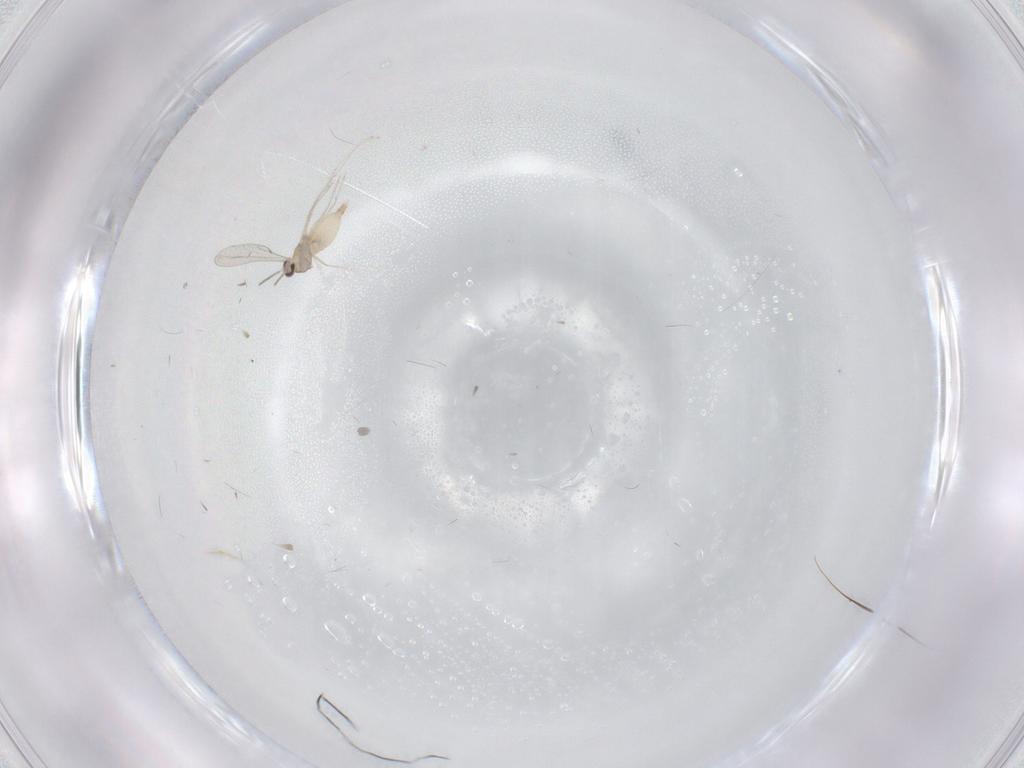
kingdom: Animalia
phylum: Arthropoda
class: Insecta
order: Diptera
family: Cecidomyiidae
